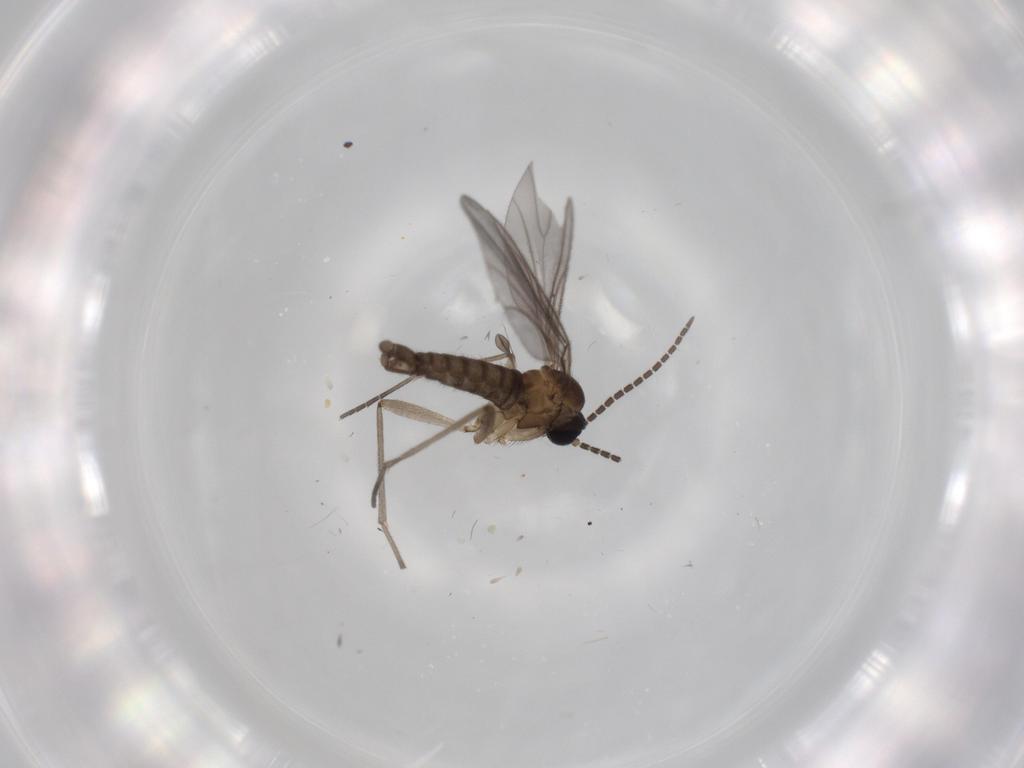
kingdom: Animalia
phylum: Arthropoda
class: Insecta
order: Diptera
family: Sciaridae
